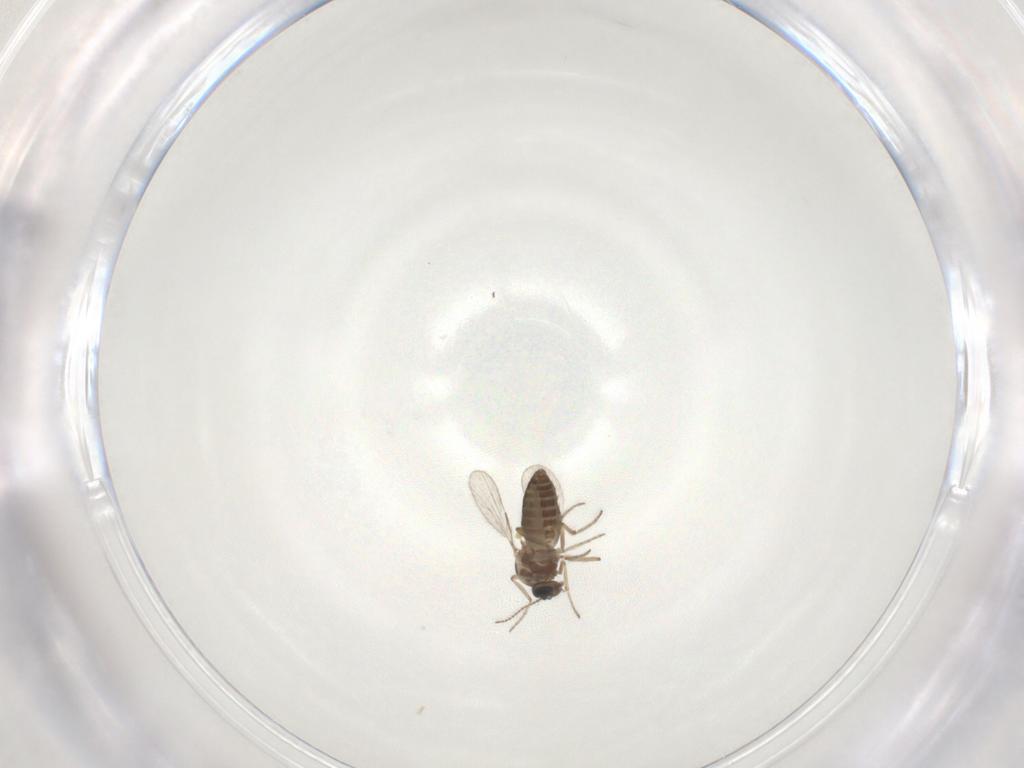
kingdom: Animalia
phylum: Arthropoda
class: Insecta
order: Diptera
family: Ceratopogonidae
